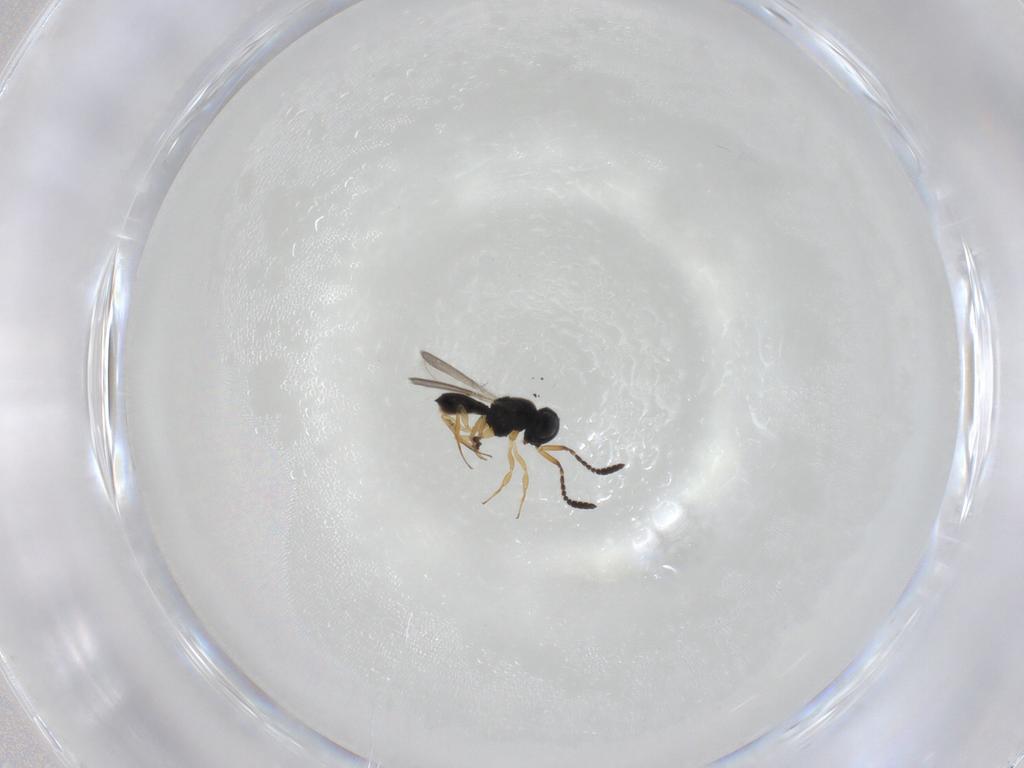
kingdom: Animalia
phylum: Arthropoda
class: Insecta
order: Hymenoptera
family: Scelionidae
